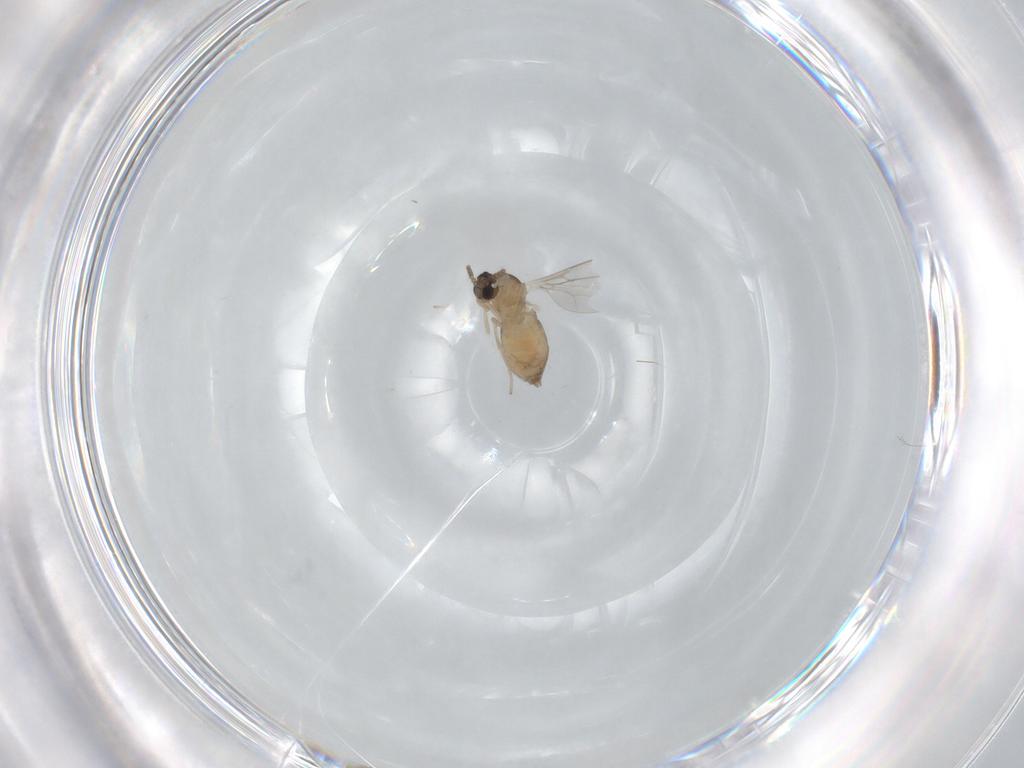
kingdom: Animalia
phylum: Arthropoda
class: Insecta
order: Diptera
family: Cecidomyiidae
